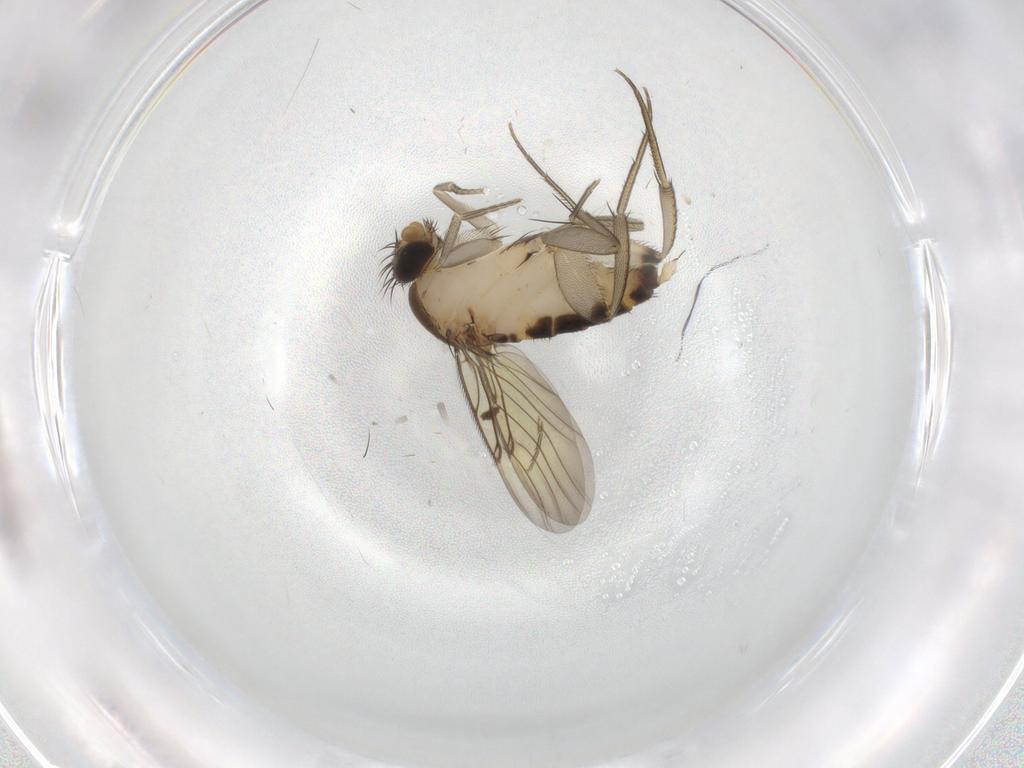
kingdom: Animalia
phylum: Arthropoda
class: Insecta
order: Diptera
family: Phoridae
